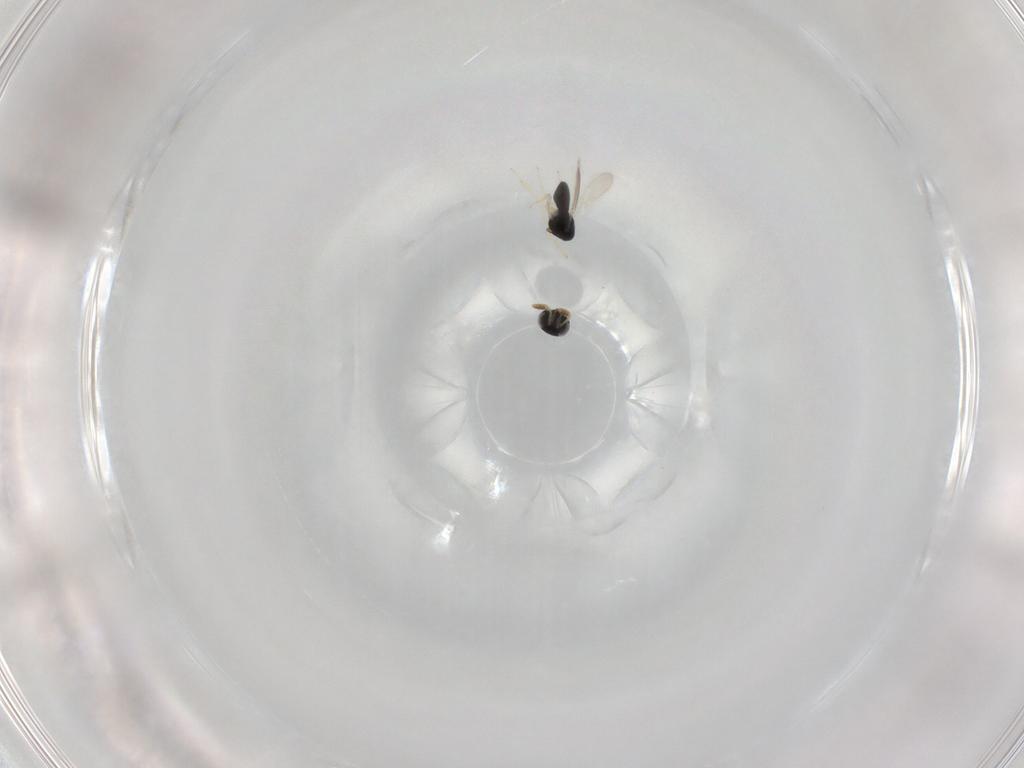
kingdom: Animalia
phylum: Arthropoda
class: Insecta
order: Hymenoptera
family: Scelionidae
